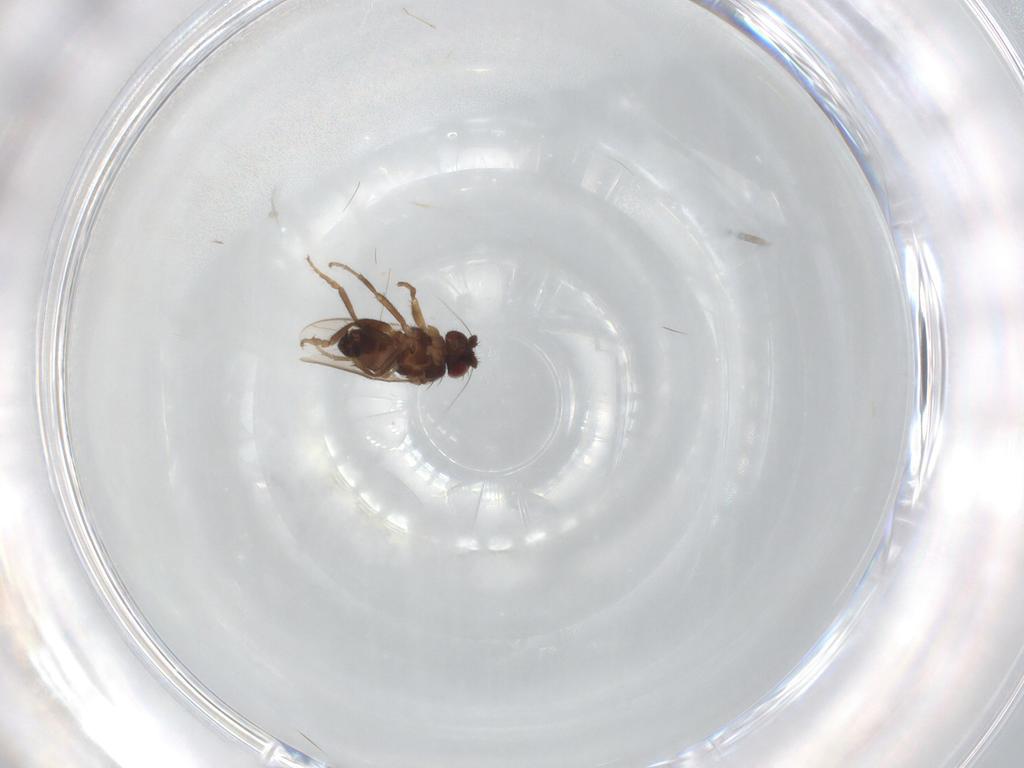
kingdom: Animalia
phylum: Arthropoda
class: Insecta
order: Diptera
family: Sphaeroceridae
